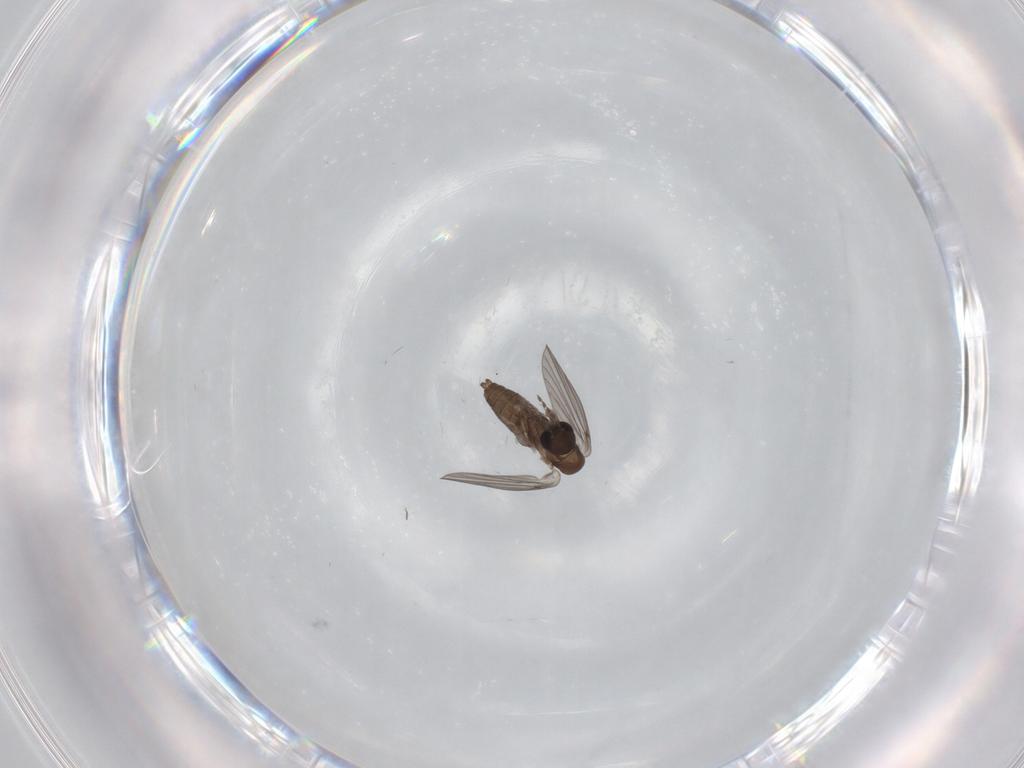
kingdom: Animalia
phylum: Arthropoda
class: Insecta
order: Diptera
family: Psychodidae
